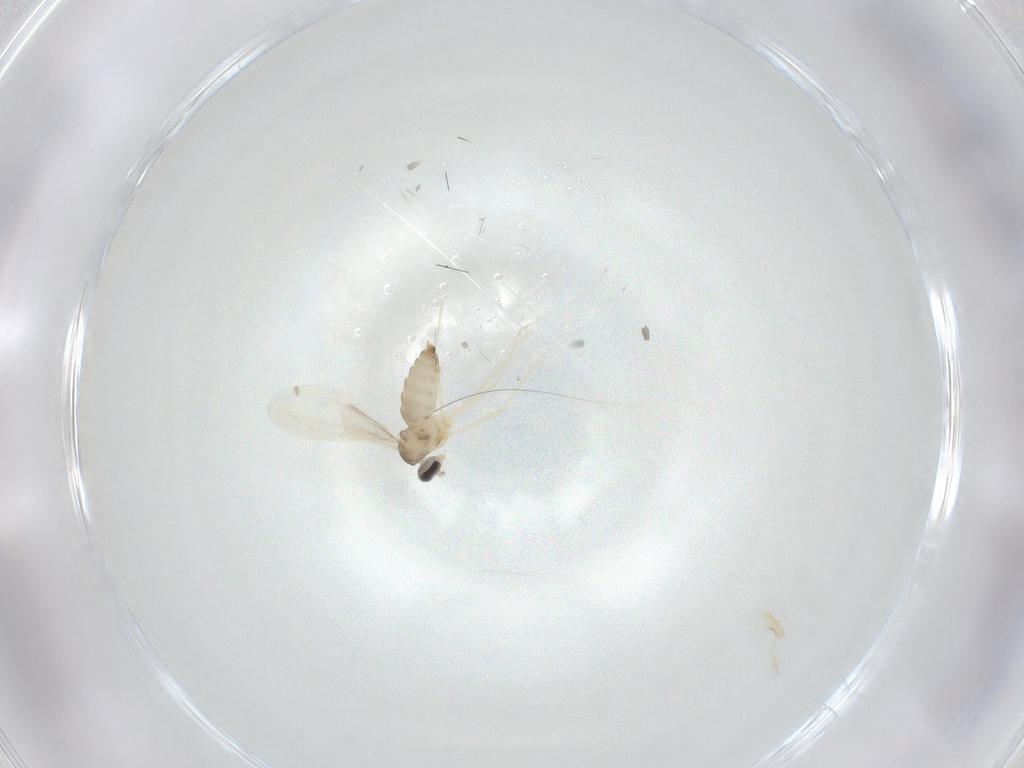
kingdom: Animalia
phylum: Arthropoda
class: Insecta
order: Diptera
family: Cecidomyiidae
